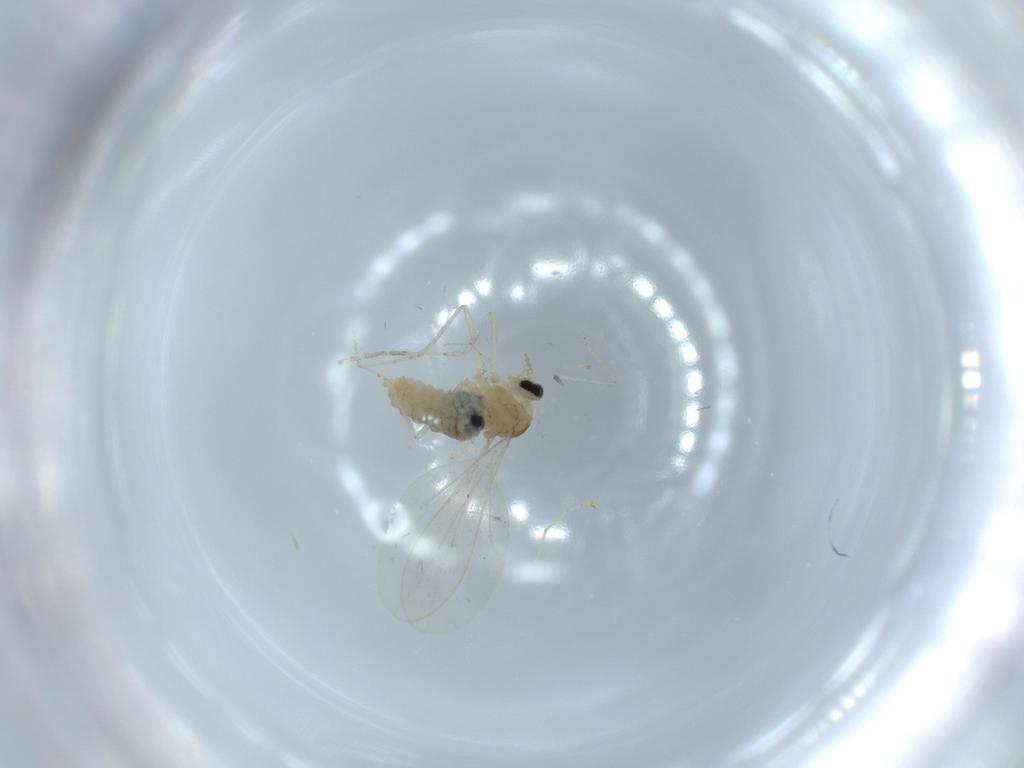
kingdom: Animalia
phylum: Arthropoda
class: Insecta
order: Diptera
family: Cecidomyiidae
